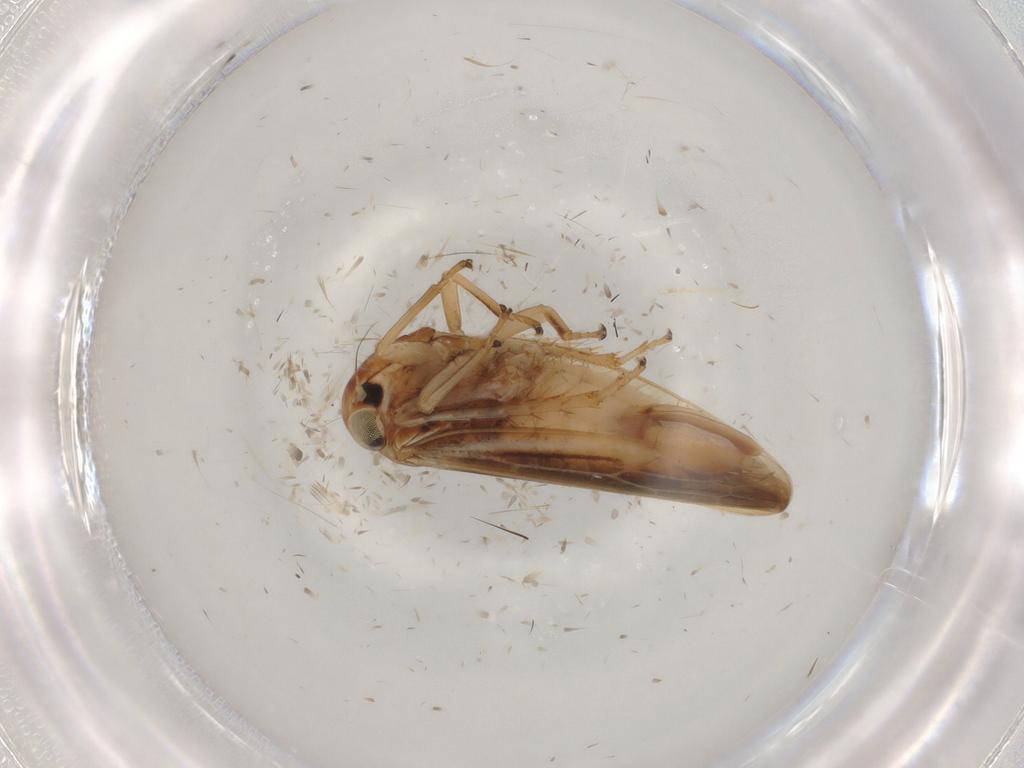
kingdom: Animalia
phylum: Arthropoda
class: Insecta
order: Hemiptera
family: Cicadellidae
